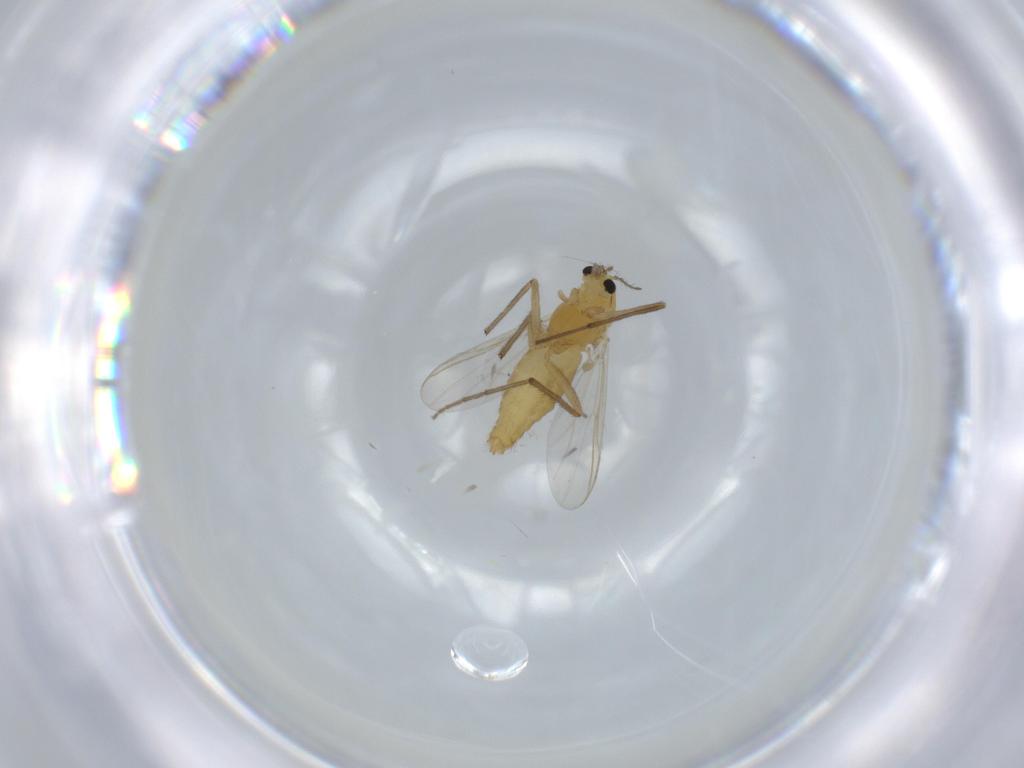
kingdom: Animalia
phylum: Arthropoda
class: Insecta
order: Diptera
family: Chironomidae
